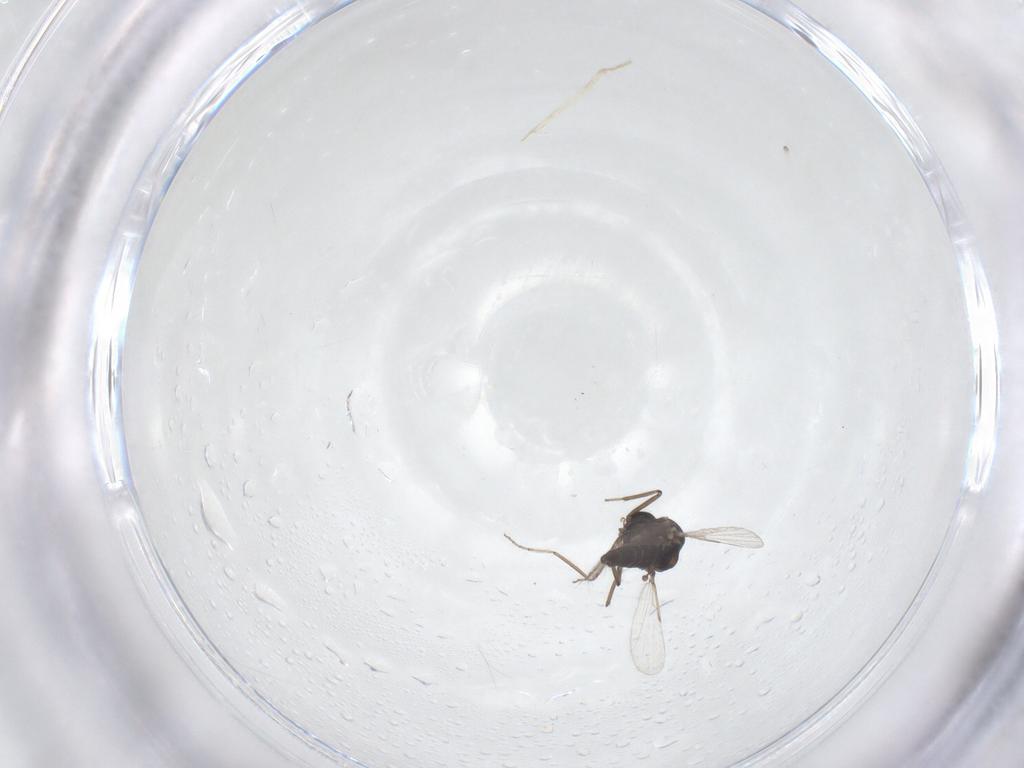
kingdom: Animalia
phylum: Arthropoda
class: Insecta
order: Diptera
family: Ceratopogonidae
